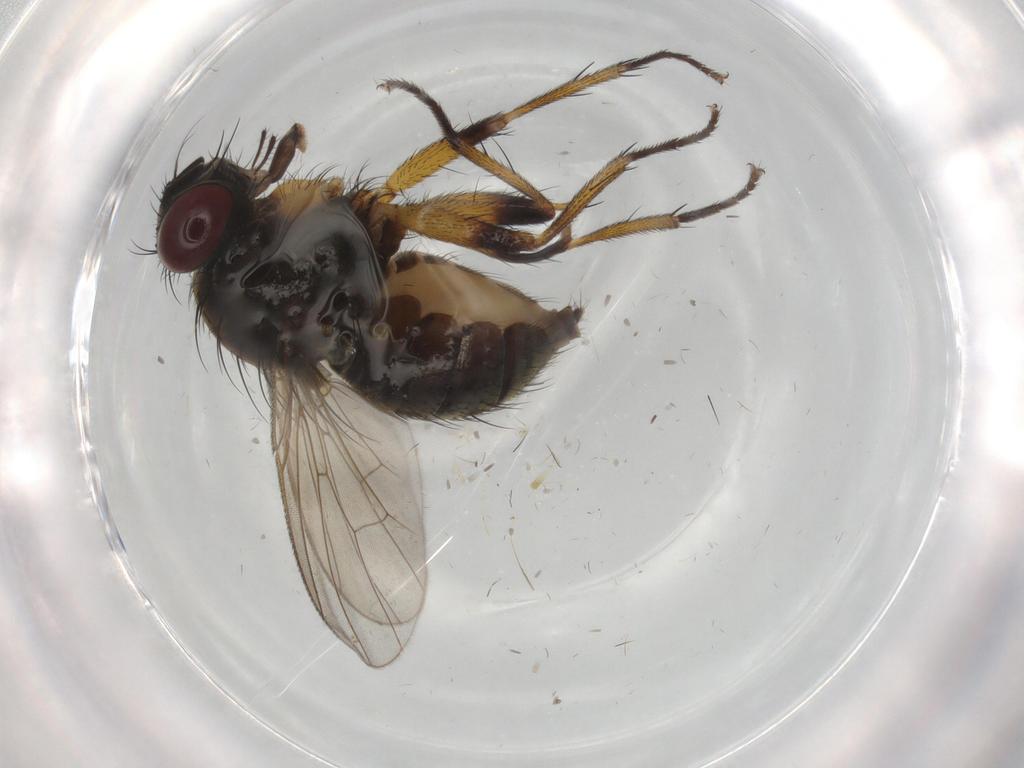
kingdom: Animalia
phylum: Arthropoda
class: Insecta
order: Diptera
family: Muscidae
